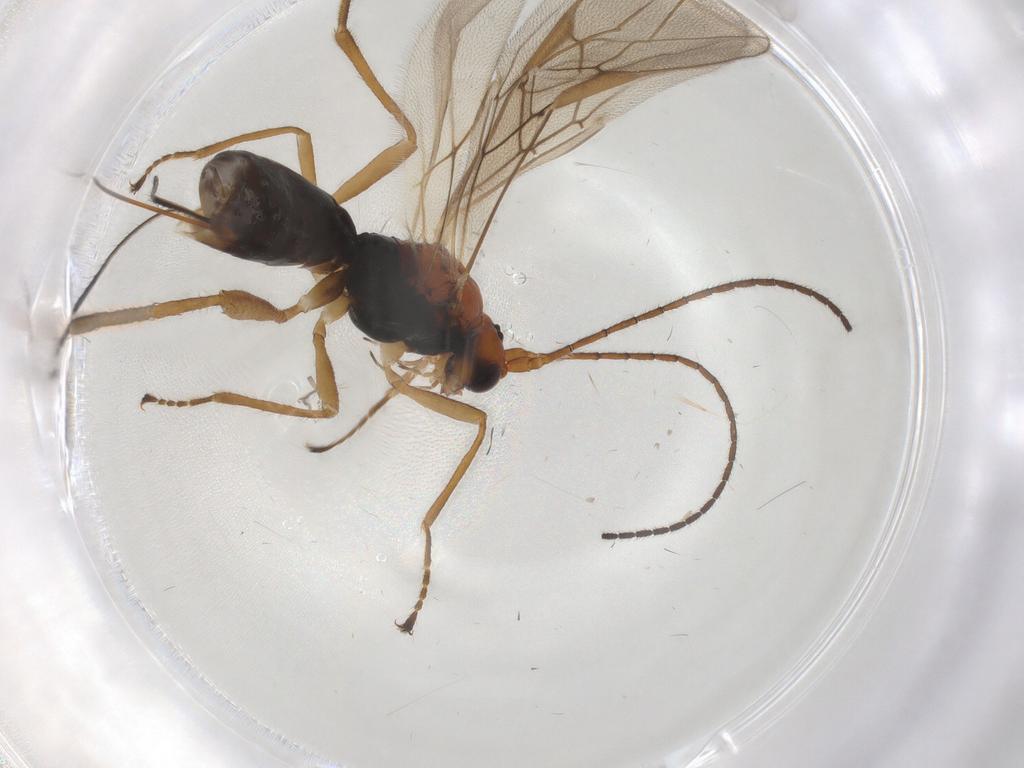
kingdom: Animalia
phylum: Arthropoda
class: Insecta
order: Hymenoptera
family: Braconidae
